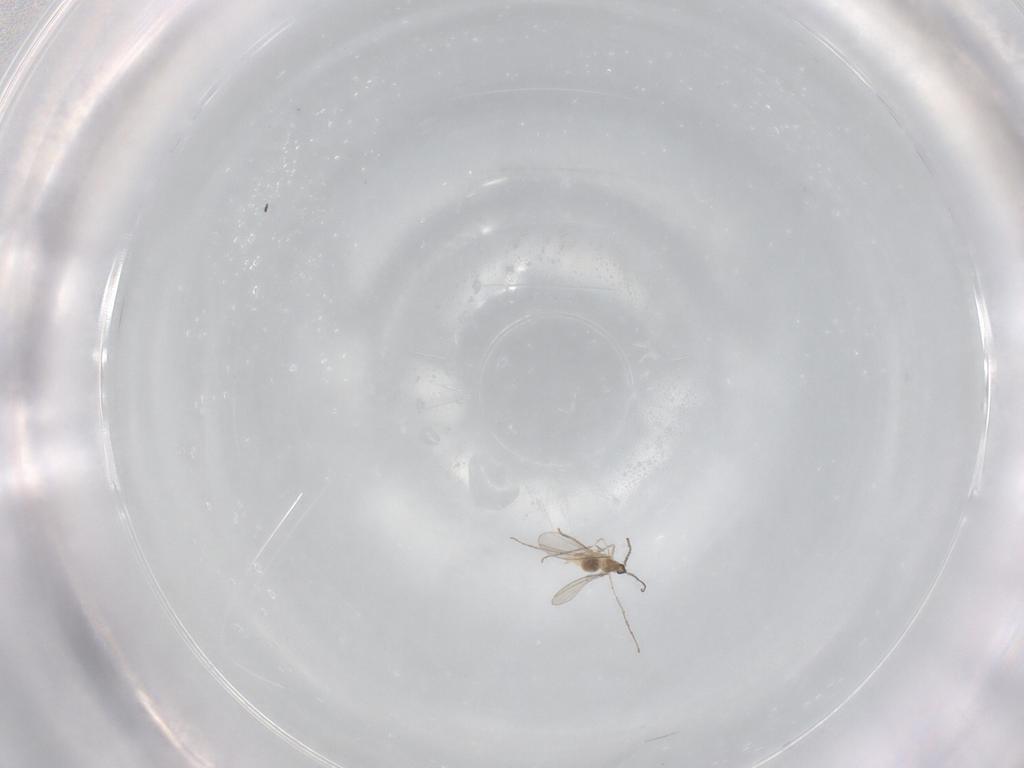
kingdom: Animalia
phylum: Arthropoda
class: Insecta
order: Diptera
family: Cecidomyiidae
